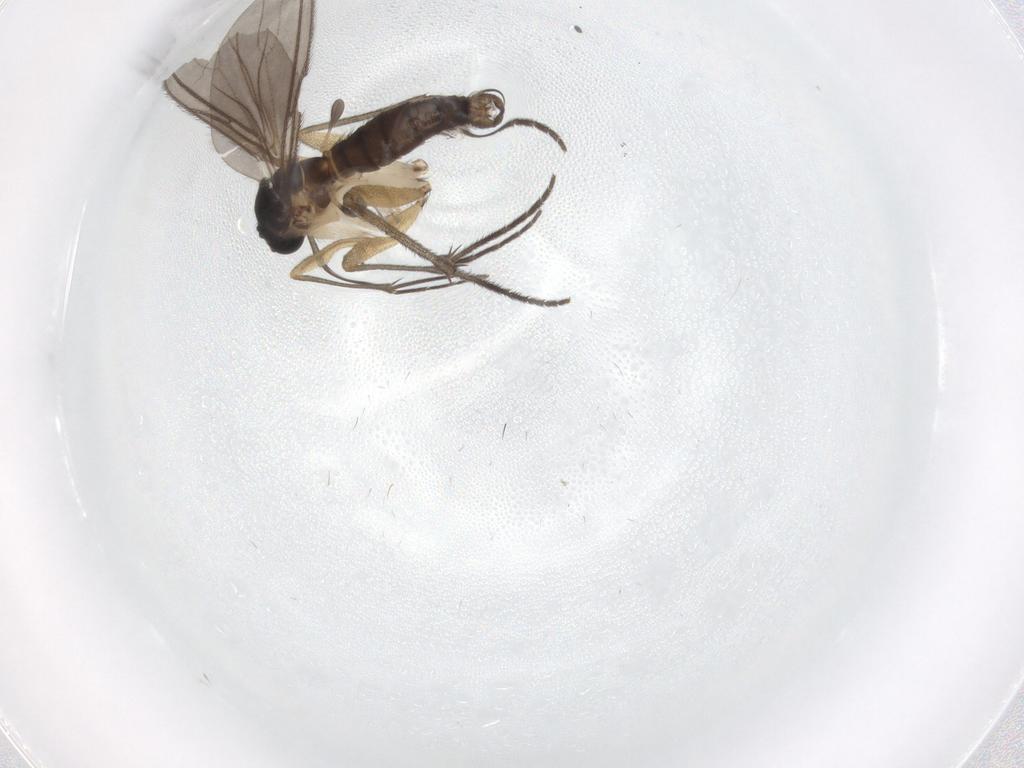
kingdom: Animalia
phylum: Arthropoda
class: Insecta
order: Diptera
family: Sciaridae
